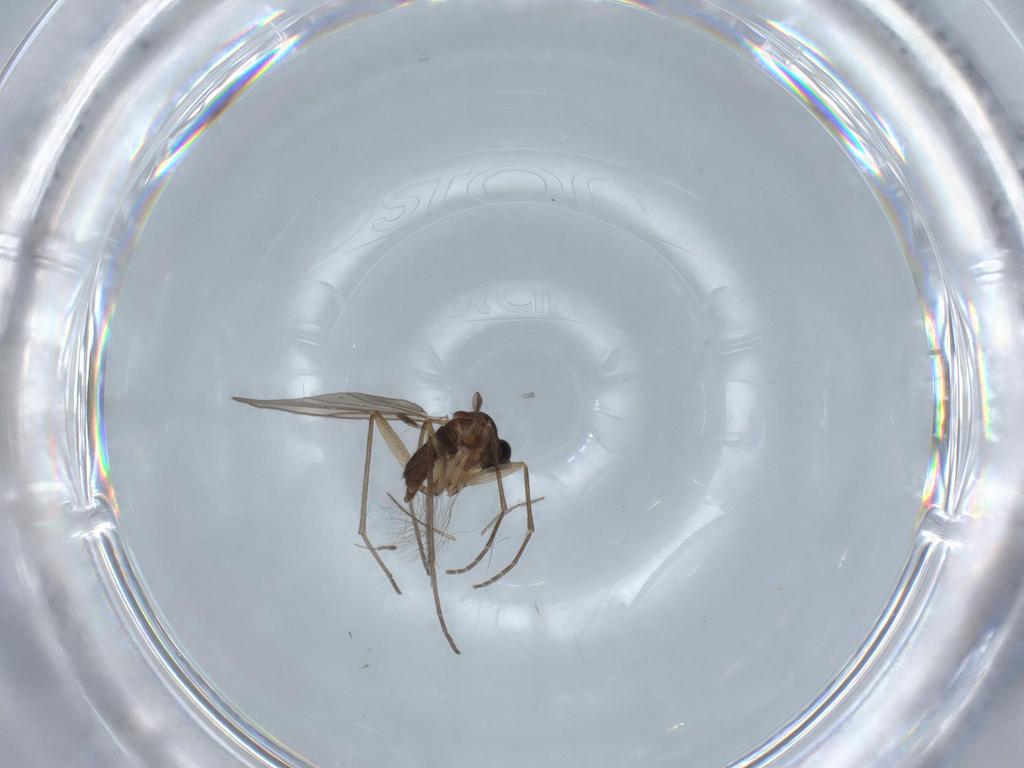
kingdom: Animalia
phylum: Arthropoda
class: Insecta
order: Diptera
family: Sciaridae
